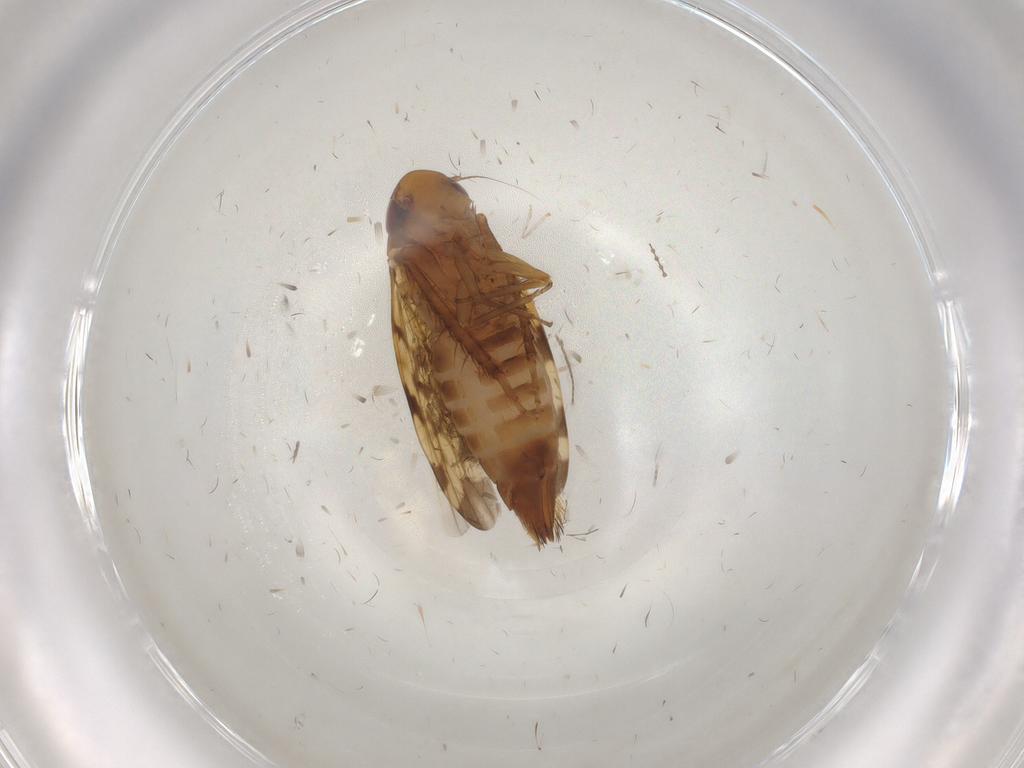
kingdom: Animalia
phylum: Arthropoda
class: Insecta
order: Hemiptera
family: Cicadellidae
